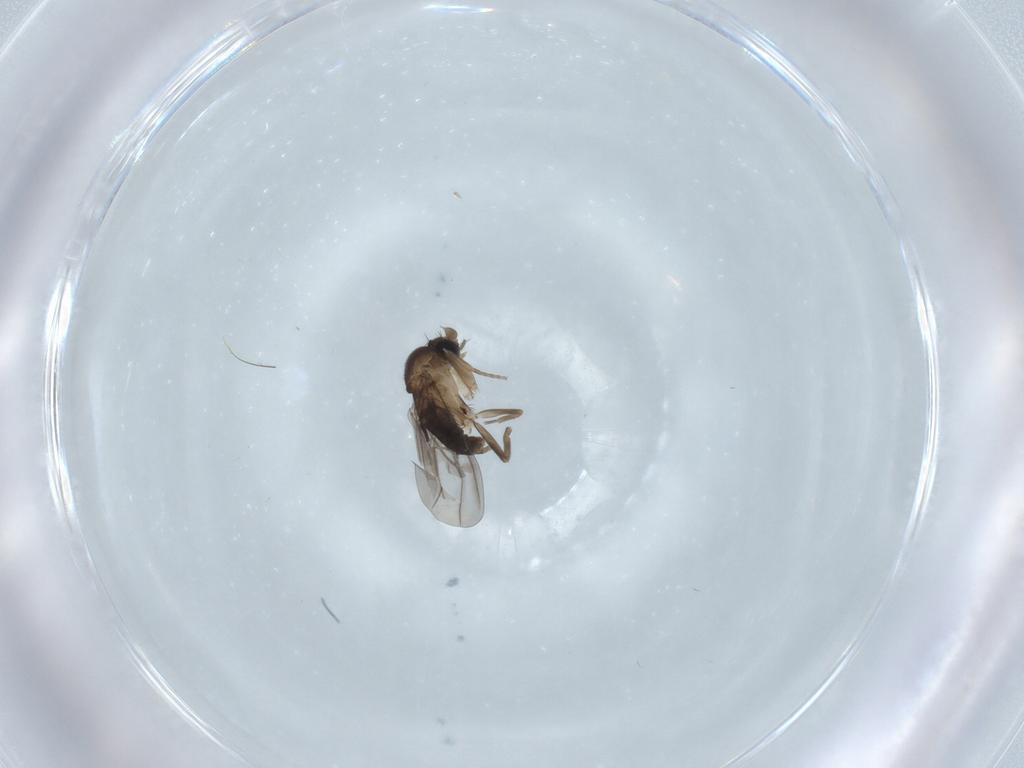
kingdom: Animalia
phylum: Arthropoda
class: Insecta
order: Diptera
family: Phoridae
